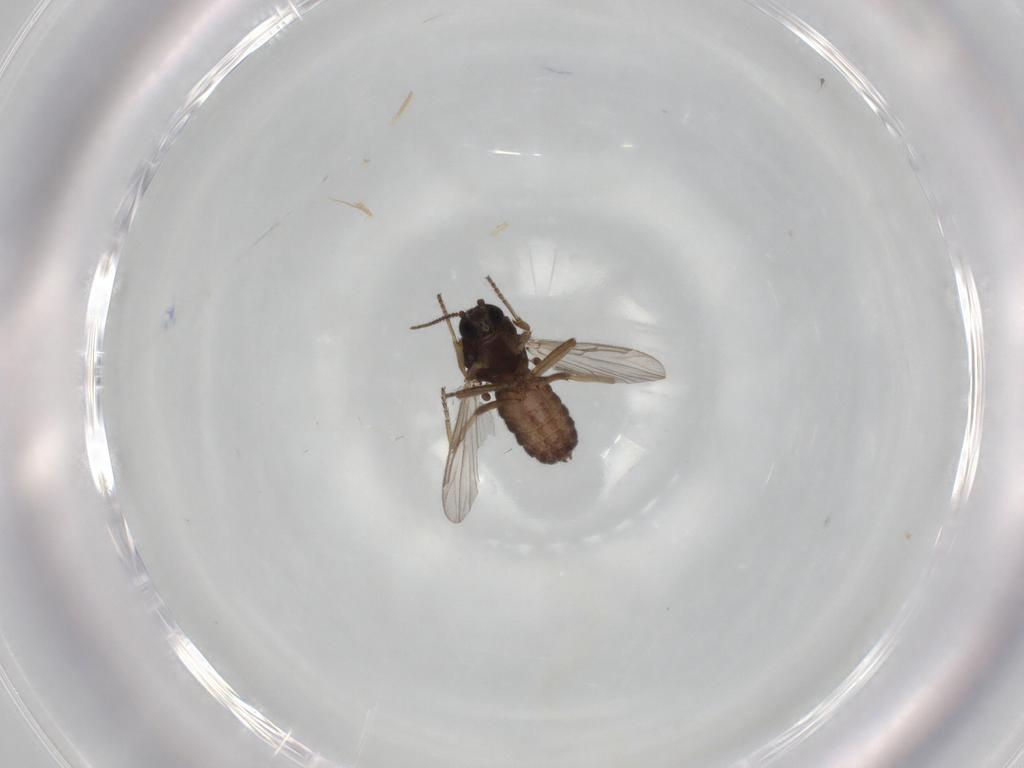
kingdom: Animalia
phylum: Arthropoda
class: Insecta
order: Diptera
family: Ceratopogonidae
